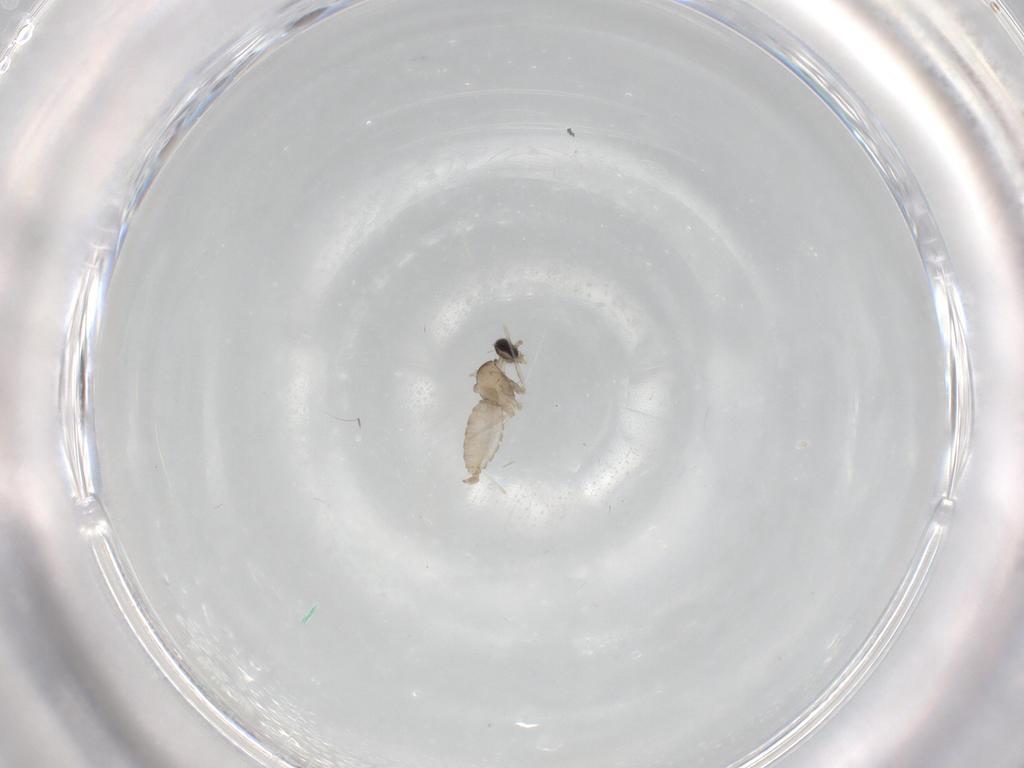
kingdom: Animalia
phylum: Arthropoda
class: Insecta
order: Diptera
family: Cecidomyiidae
